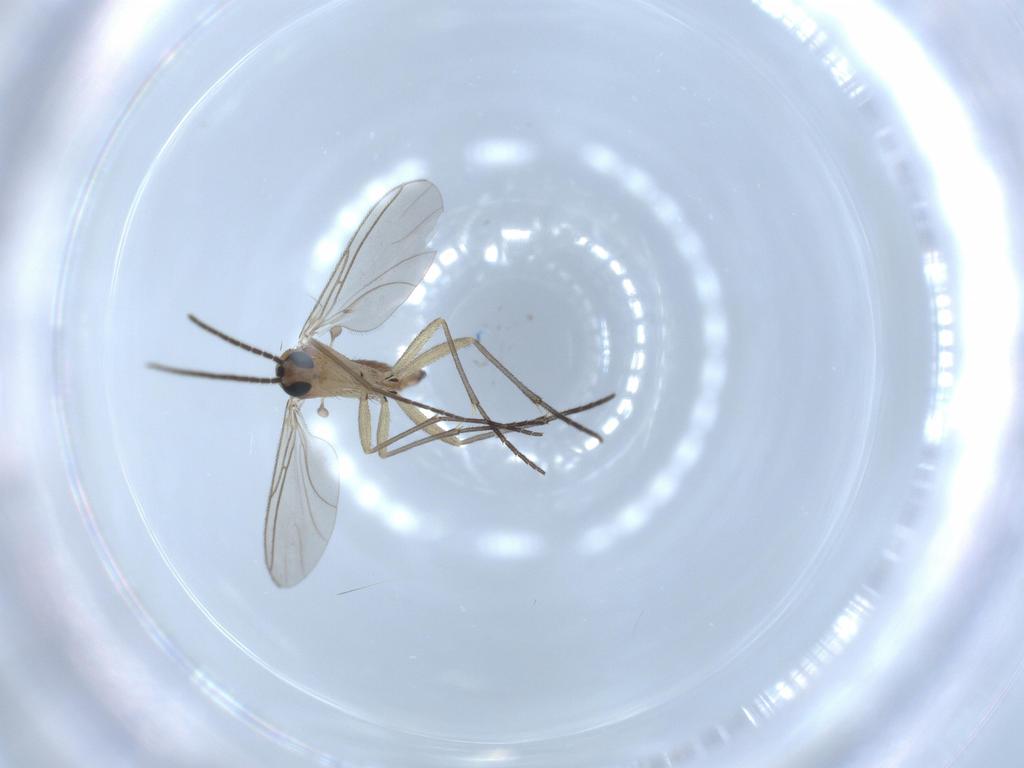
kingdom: Animalia
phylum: Arthropoda
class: Insecta
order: Diptera
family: Sciaridae
